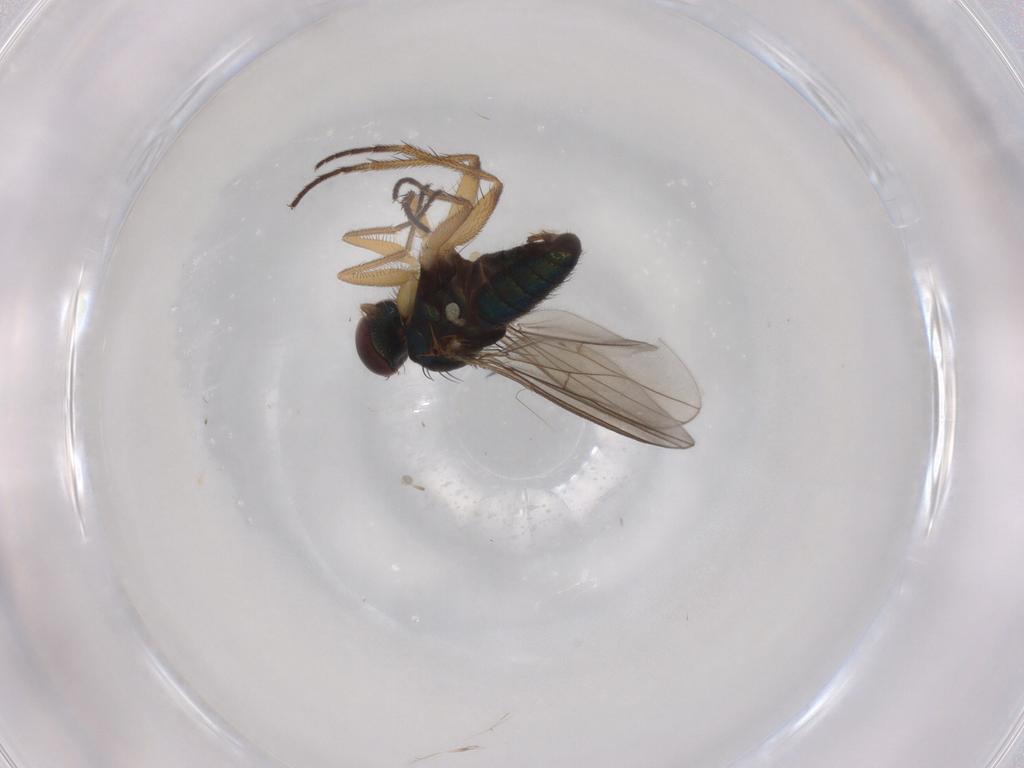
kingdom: Animalia
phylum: Arthropoda
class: Insecta
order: Diptera
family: Dolichopodidae
